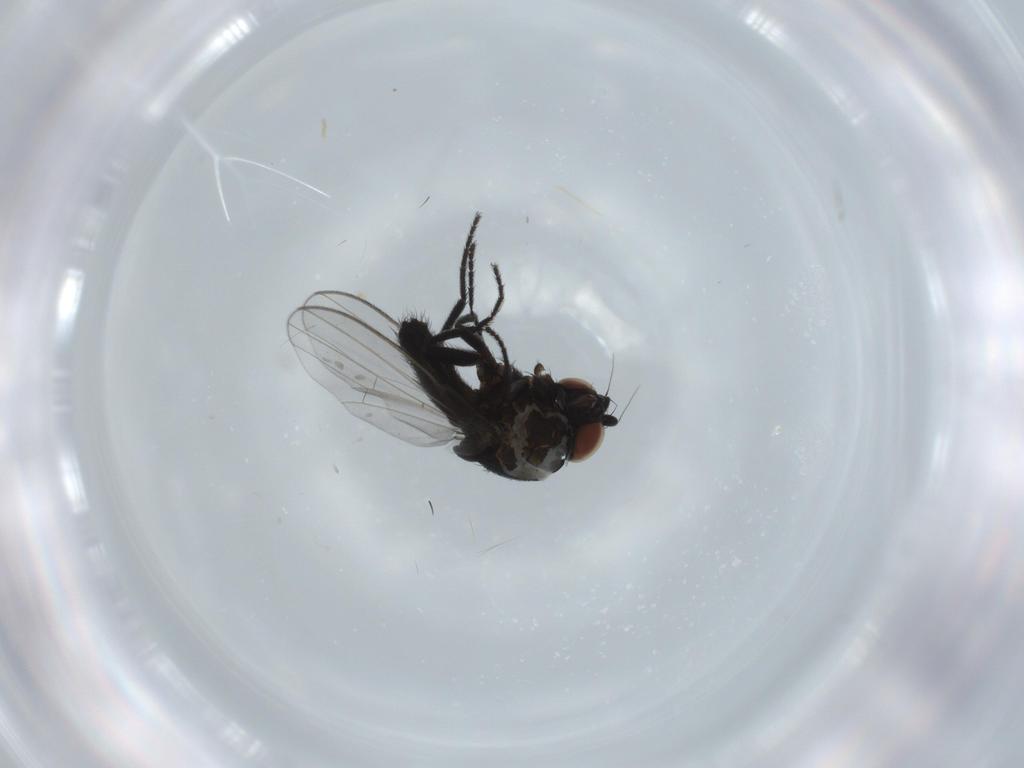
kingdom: Animalia
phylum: Arthropoda
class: Insecta
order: Diptera
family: Milichiidae
